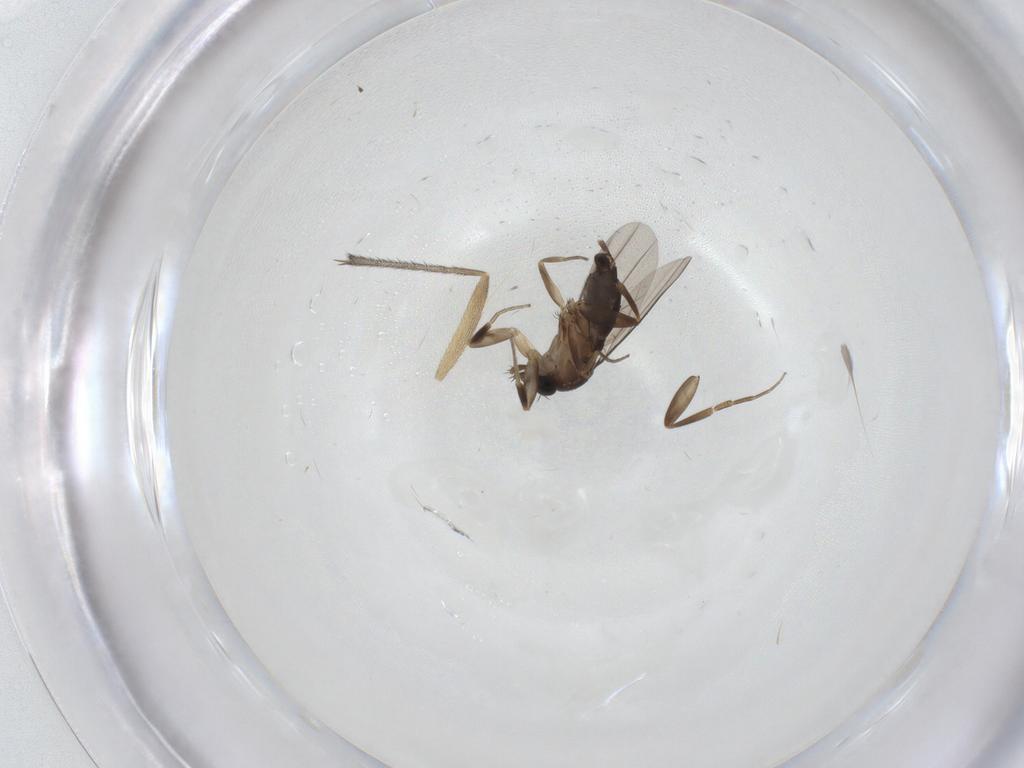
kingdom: Animalia
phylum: Arthropoda
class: Insecta
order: Diptera
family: Phoridae
